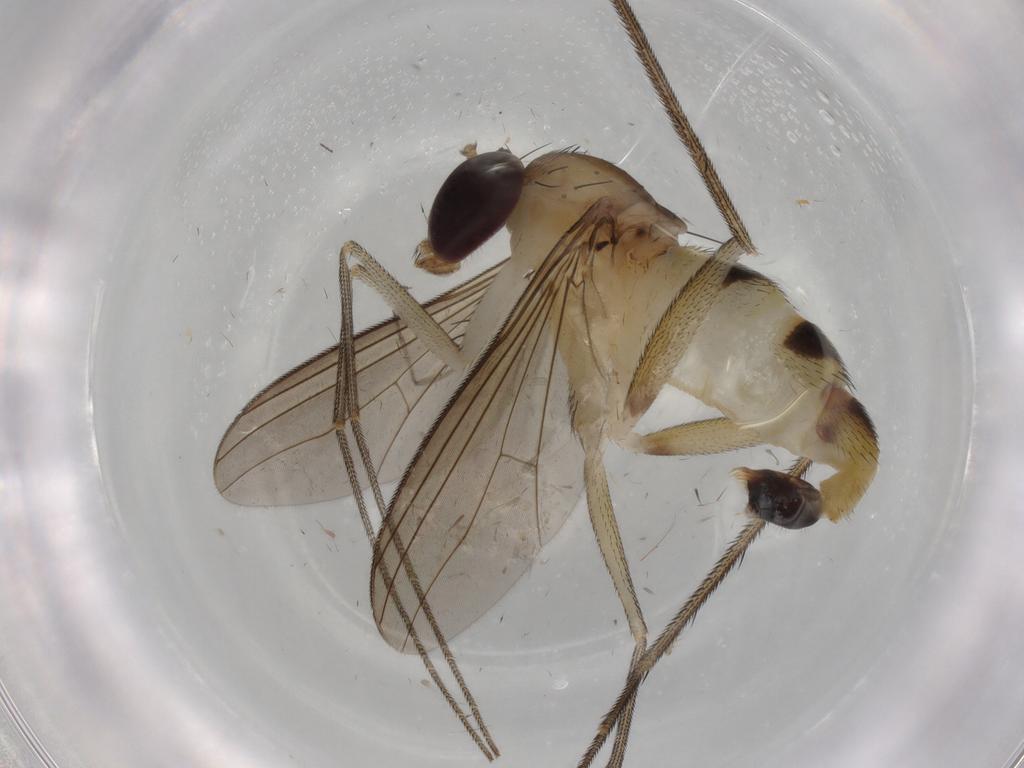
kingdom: Animalia
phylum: Arthropoda
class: Insecta
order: Diptera
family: Dolichopodidae
